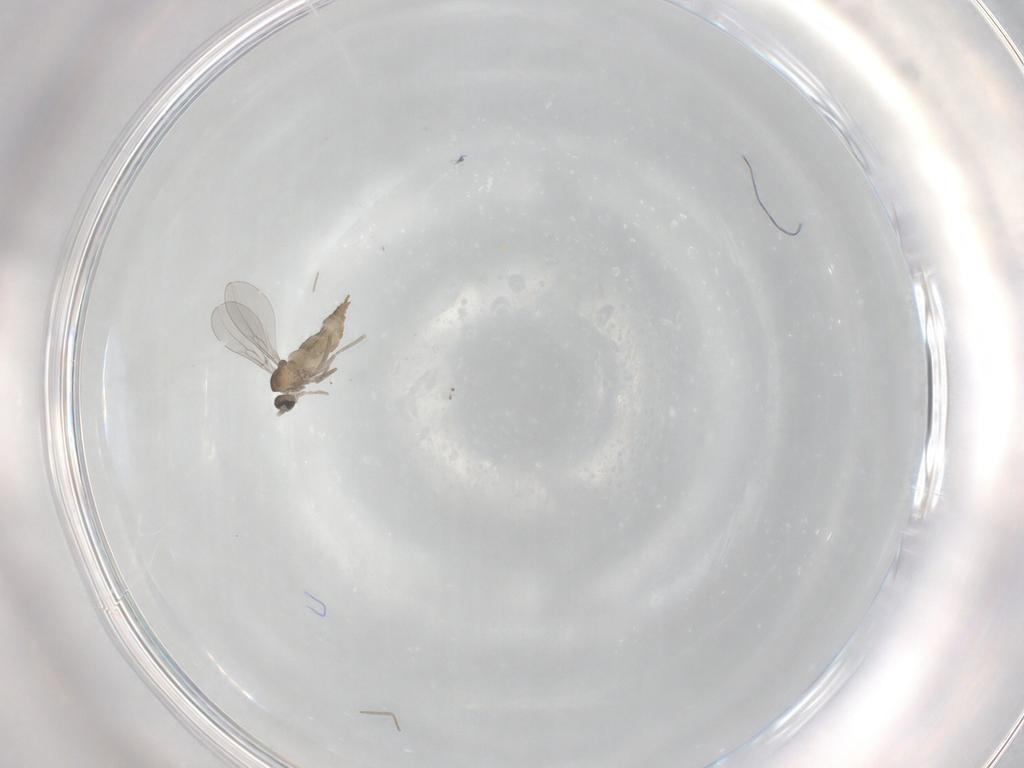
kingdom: Animalia
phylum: Arthropoda
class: Insecta
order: Diptera
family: Cecidomyiidae
